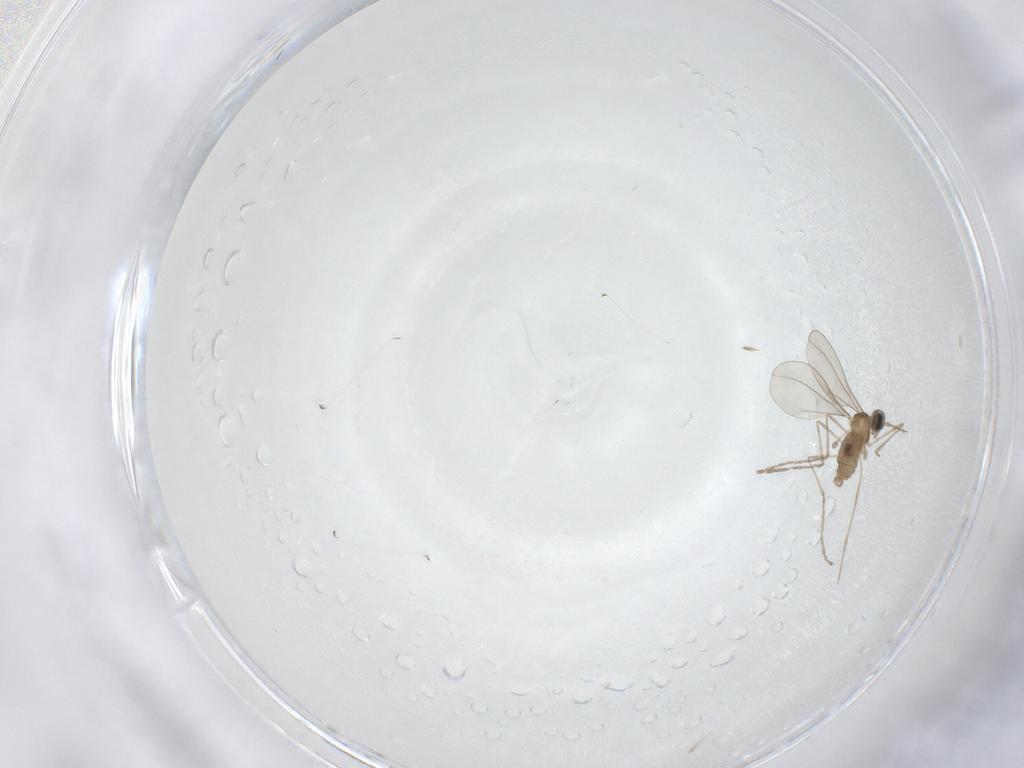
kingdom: Animalia
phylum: Arthropoda
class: Insecta
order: Diptera
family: Cecidomyiidae
